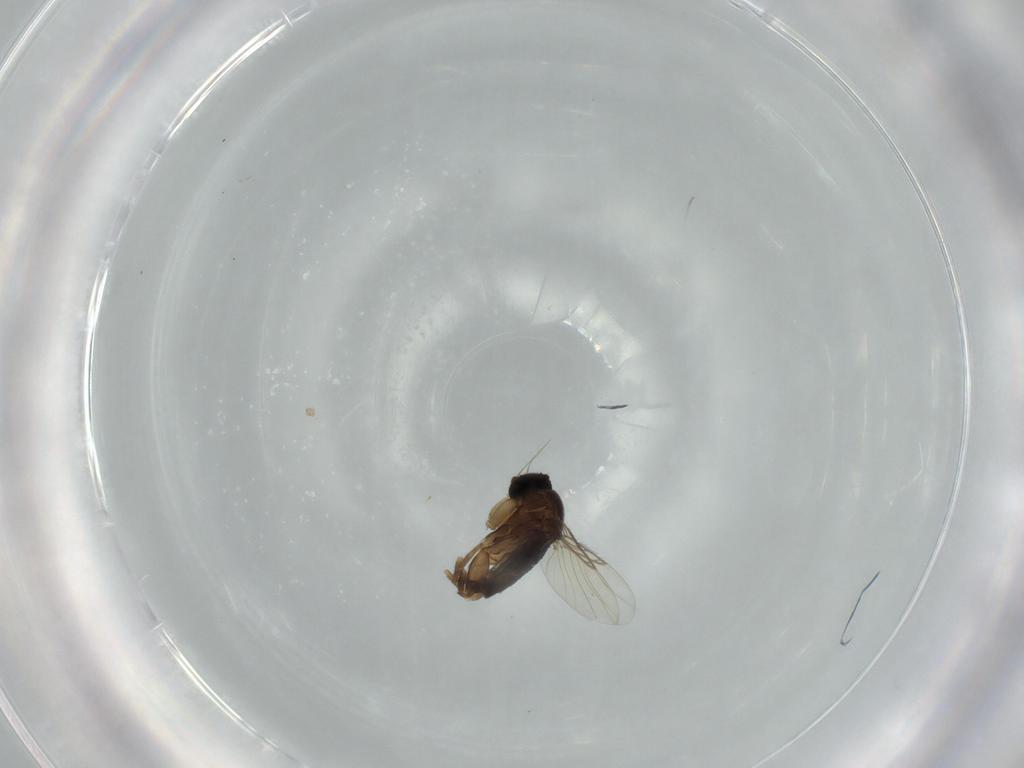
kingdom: Animalia
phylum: Arthropoda
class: Insecta
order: Diptera
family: Phoridae
